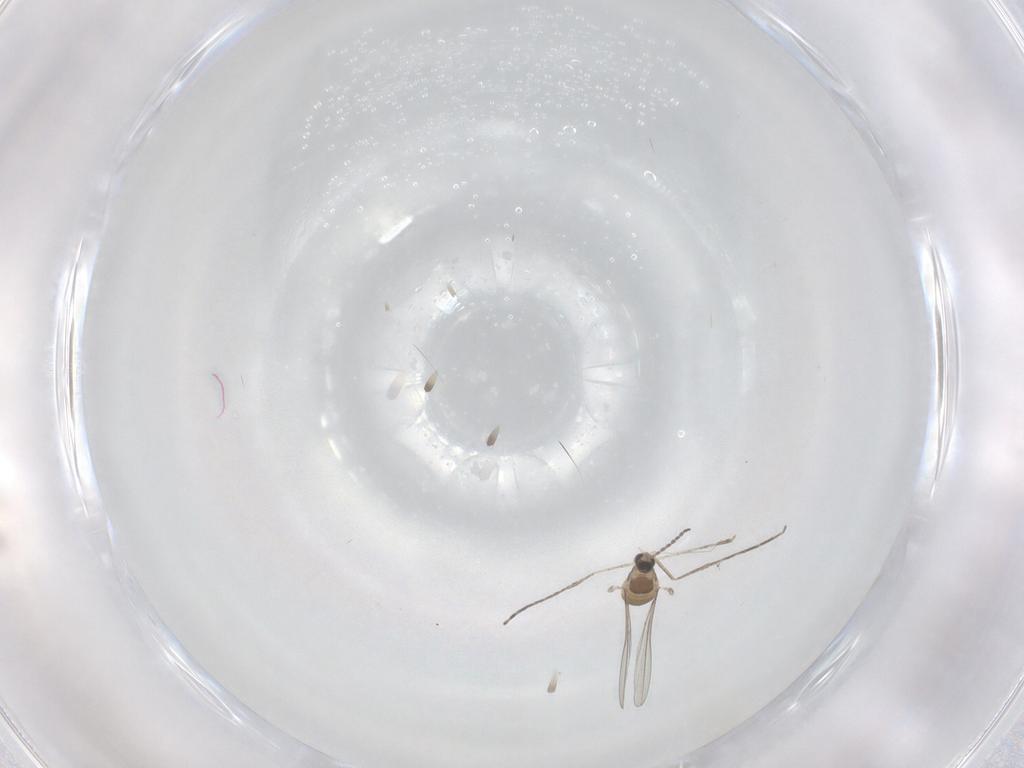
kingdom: Animalia
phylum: Arthropoda
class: Insecta
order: Diptera
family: Cecidomyiidae
